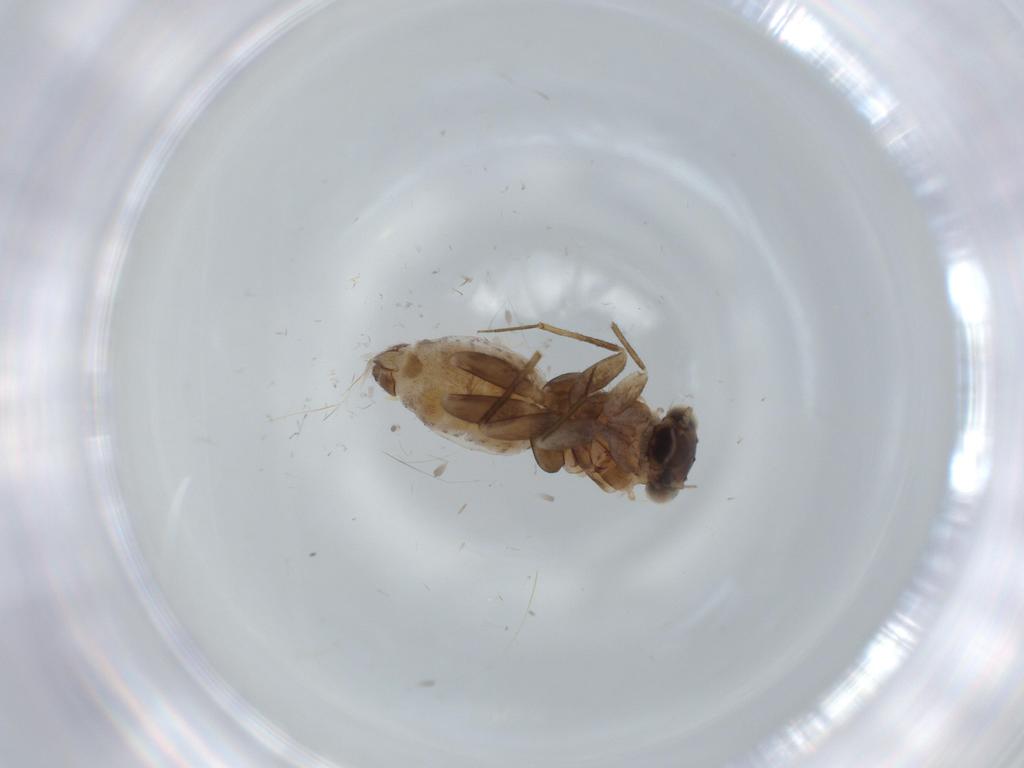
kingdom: Animalia
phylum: Arthropoda
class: Insecta
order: Psocodea
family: Lepidopsocidae
